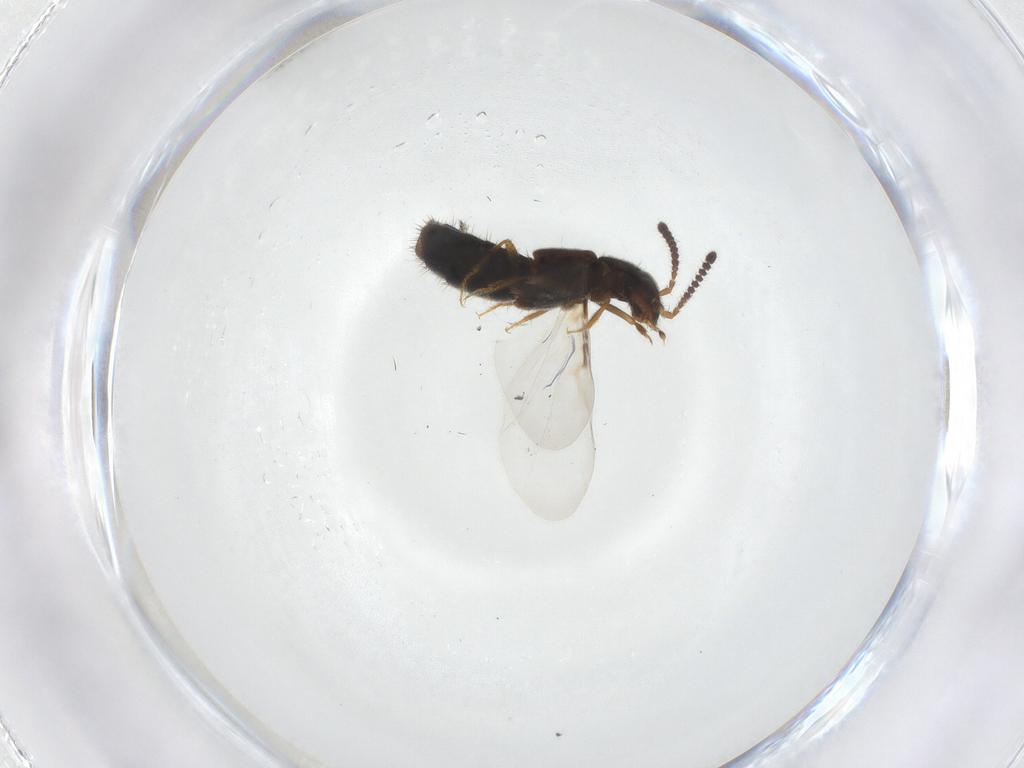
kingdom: Animalia
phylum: Arthropoda
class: Insecta
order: Coleoptera
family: Staphylinidae
